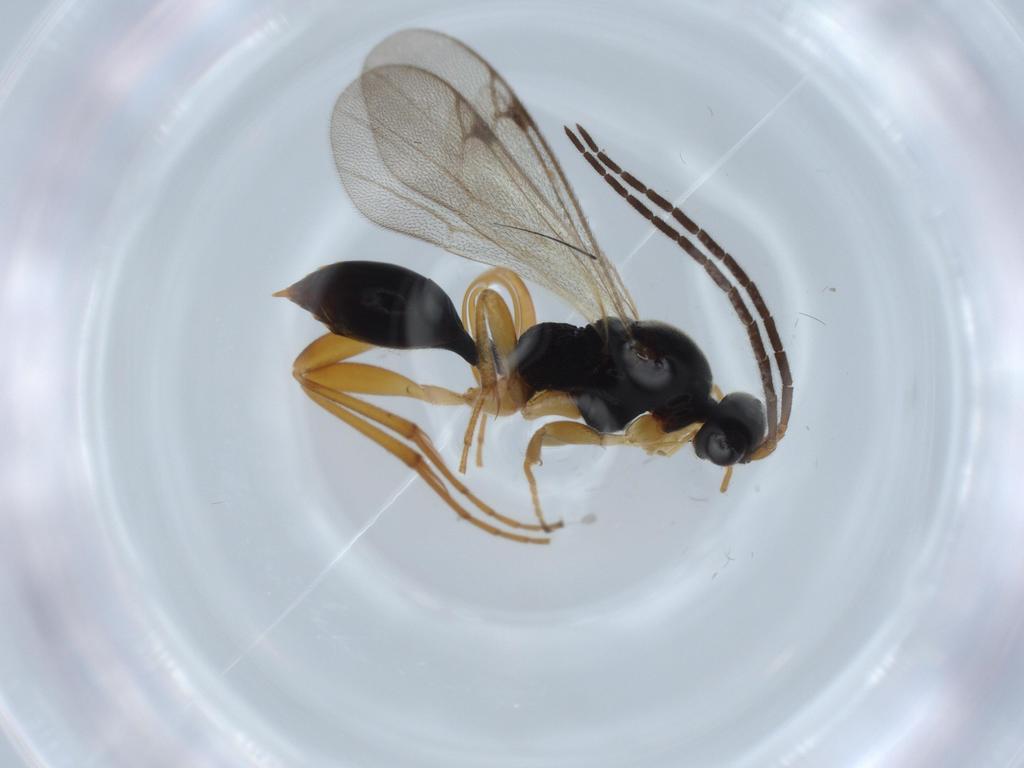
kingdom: Animalia
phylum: Arthropoda
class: Insecta
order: Hymenoptera
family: Proctotrupidae
